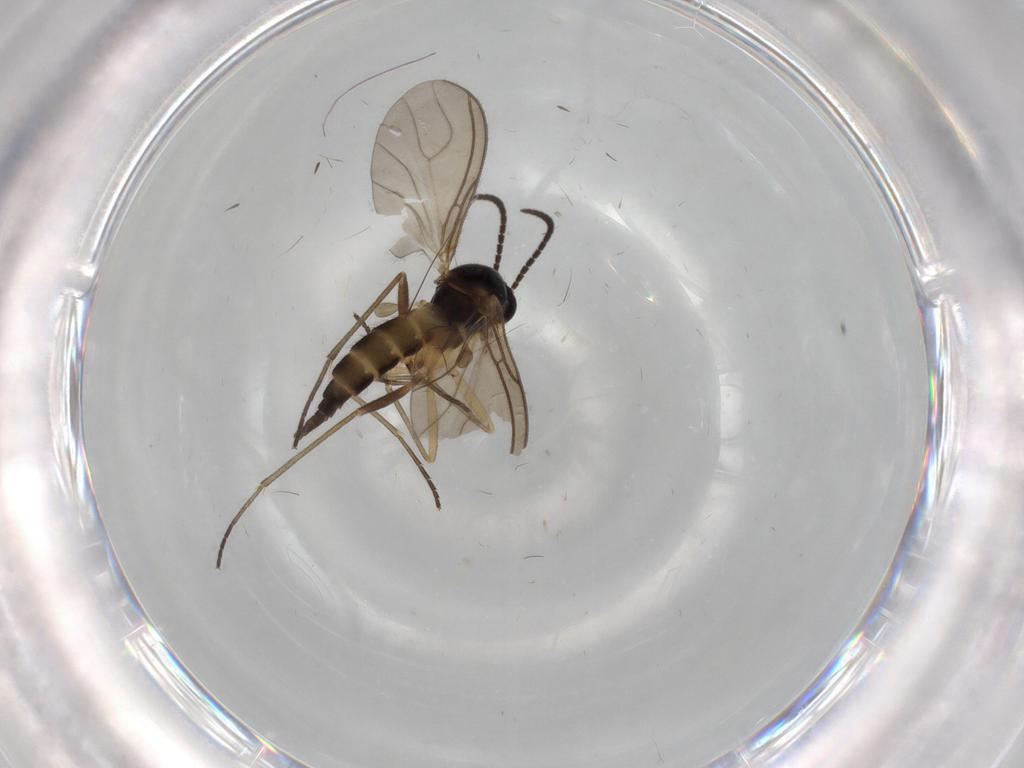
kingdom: Animalia
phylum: Arthropoda
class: Insecta
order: Diptera
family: Sciaridae
